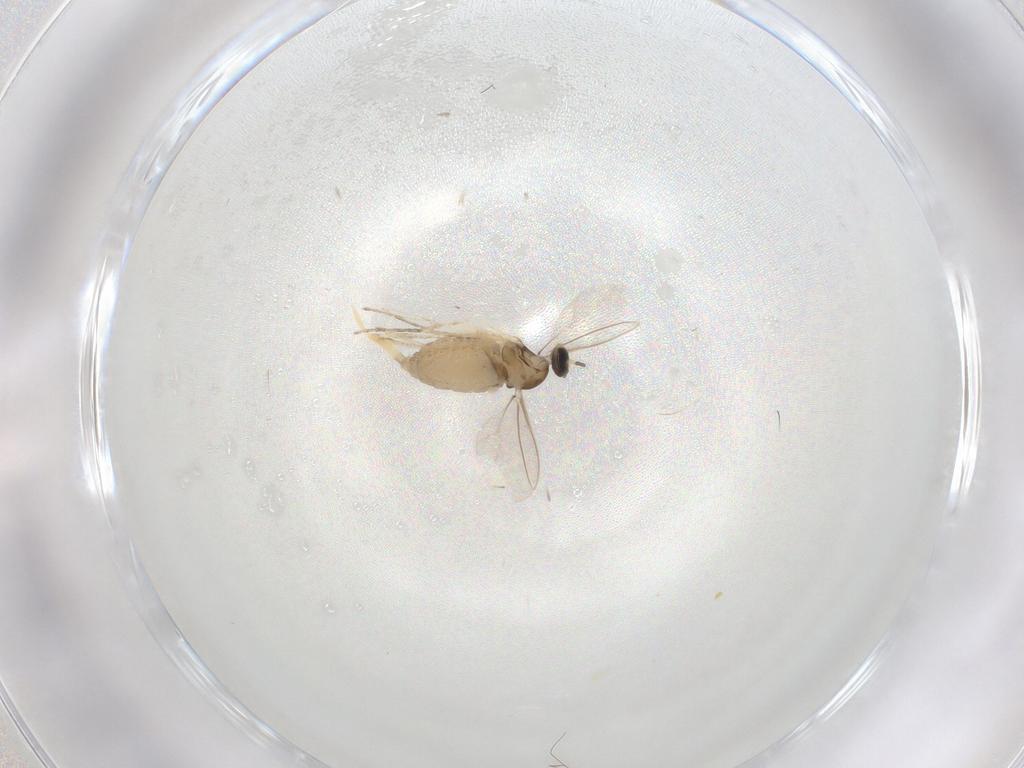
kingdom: Animalia
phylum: Arthropoda
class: Insecta
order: Diptera
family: Cecidomyiidae
